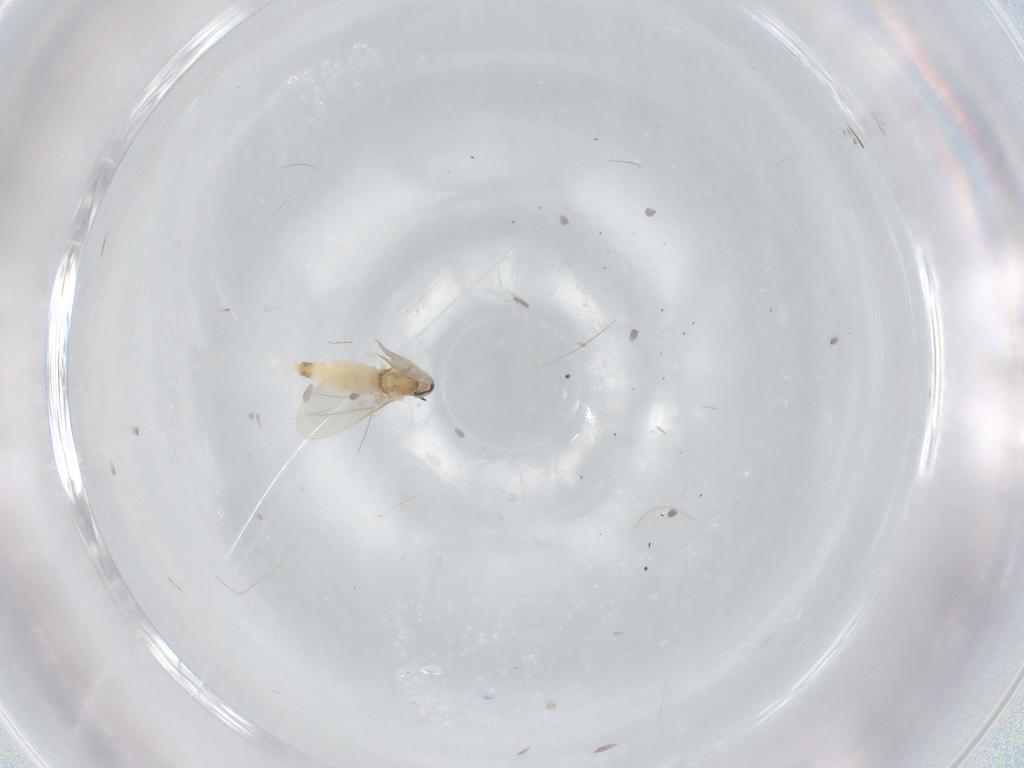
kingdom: Animalia
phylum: Arthropoda
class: Insecta
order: Diptera
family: Cecidomyiidae
